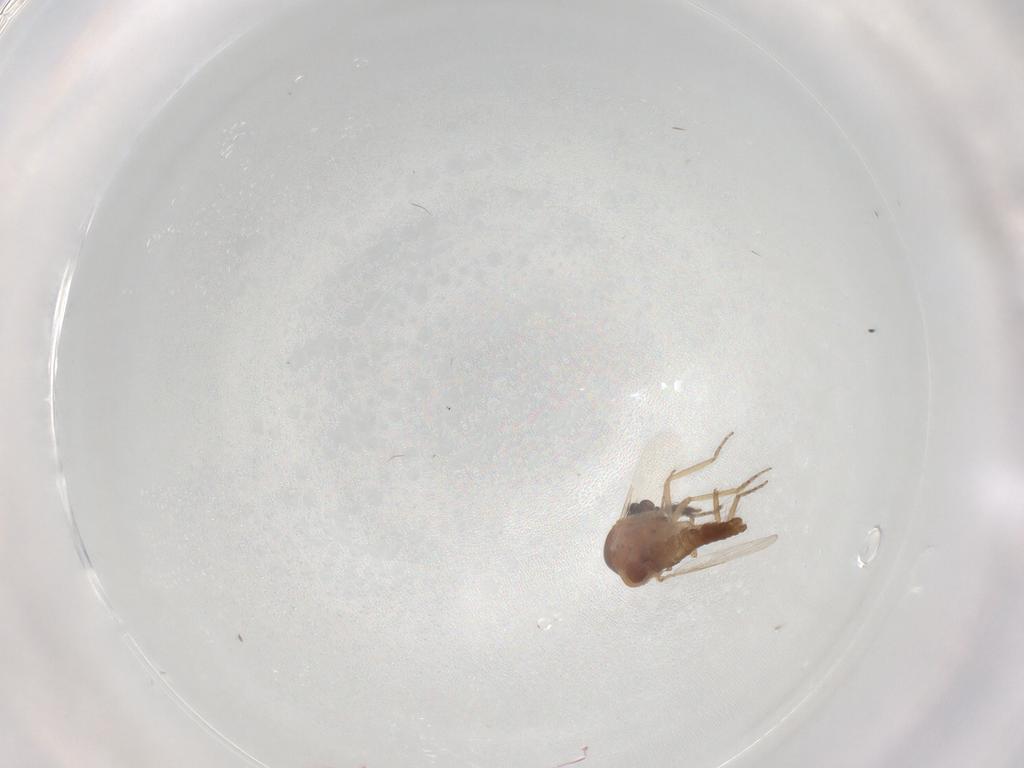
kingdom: Animalia
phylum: Arthropoda
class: Insecta
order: Diptera
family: Ceratopogonidae
